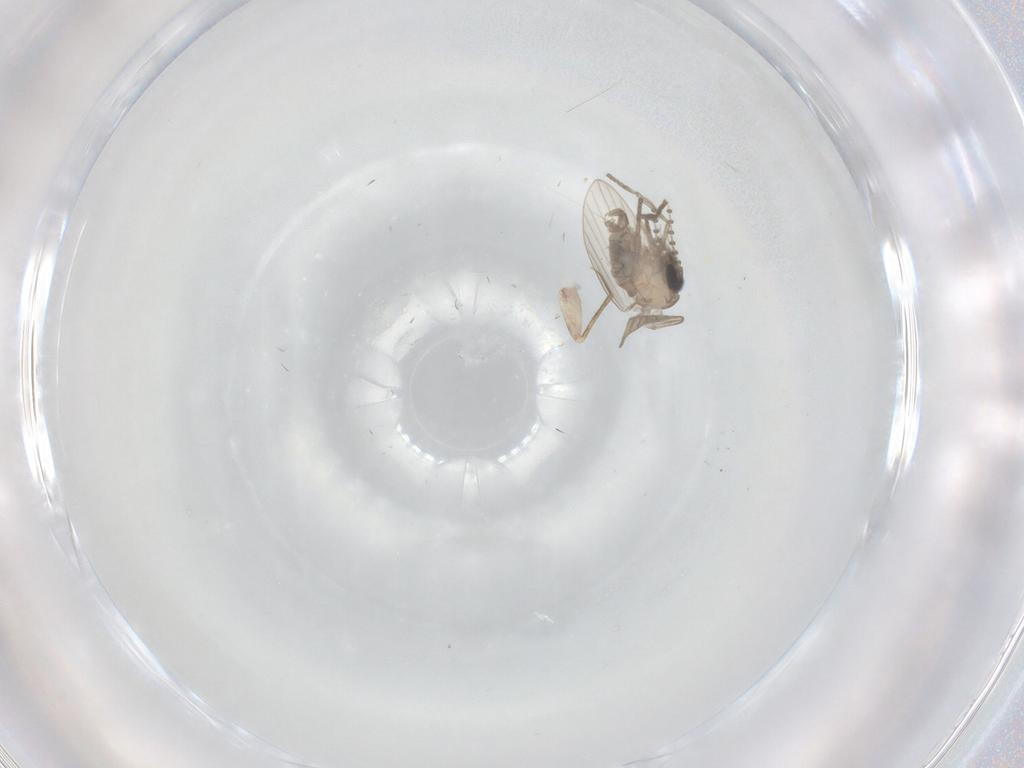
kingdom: Animalia
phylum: Arthropoda
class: Insecta
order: Diptera
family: Psychodidae
